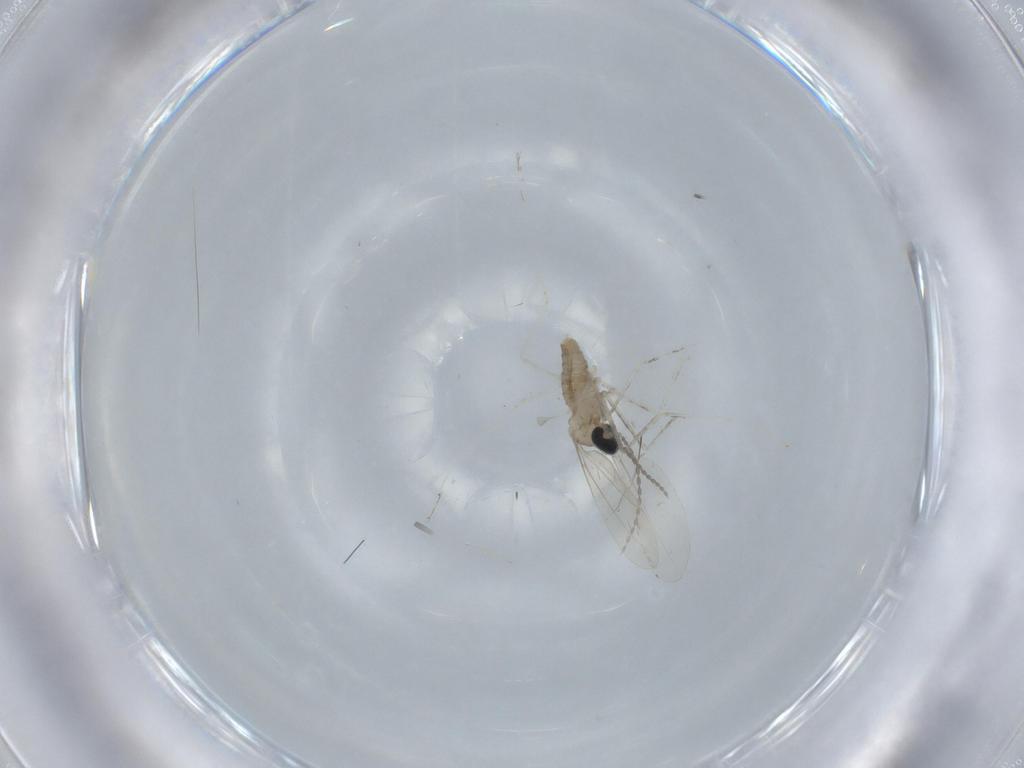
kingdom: Animalia
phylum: Arthropoda
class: Insecta
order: Diptera
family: Cecidomyiidae
